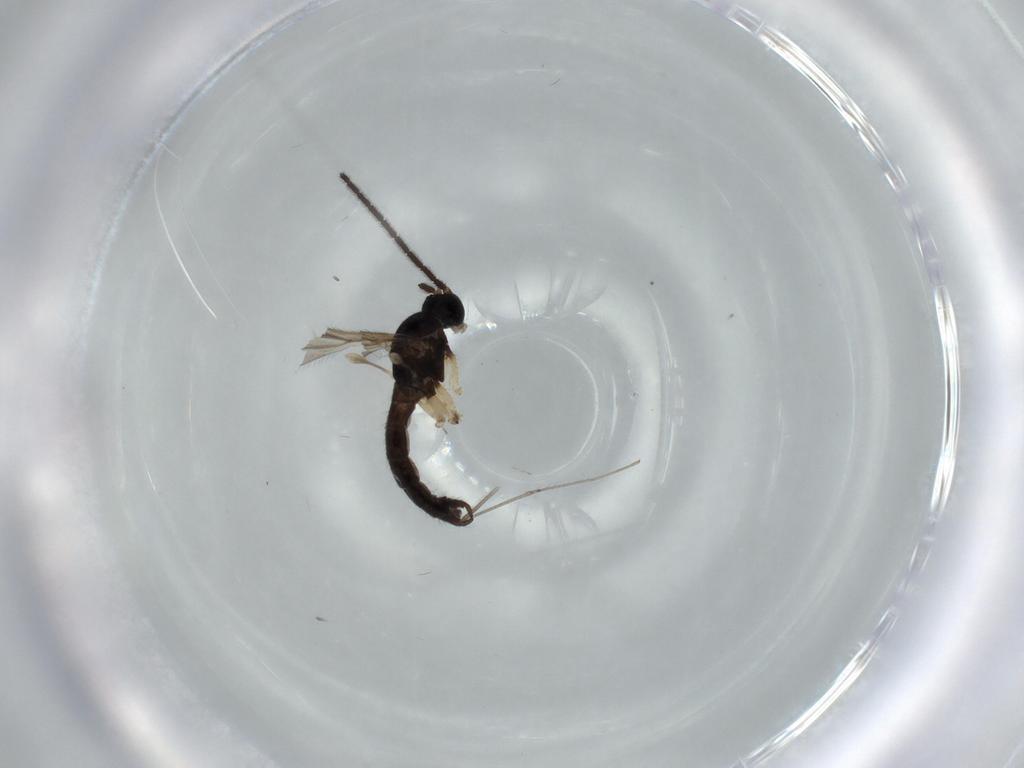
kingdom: Animalia
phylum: Arthropoda
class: Insecta
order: Diptera
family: Sciaridae
